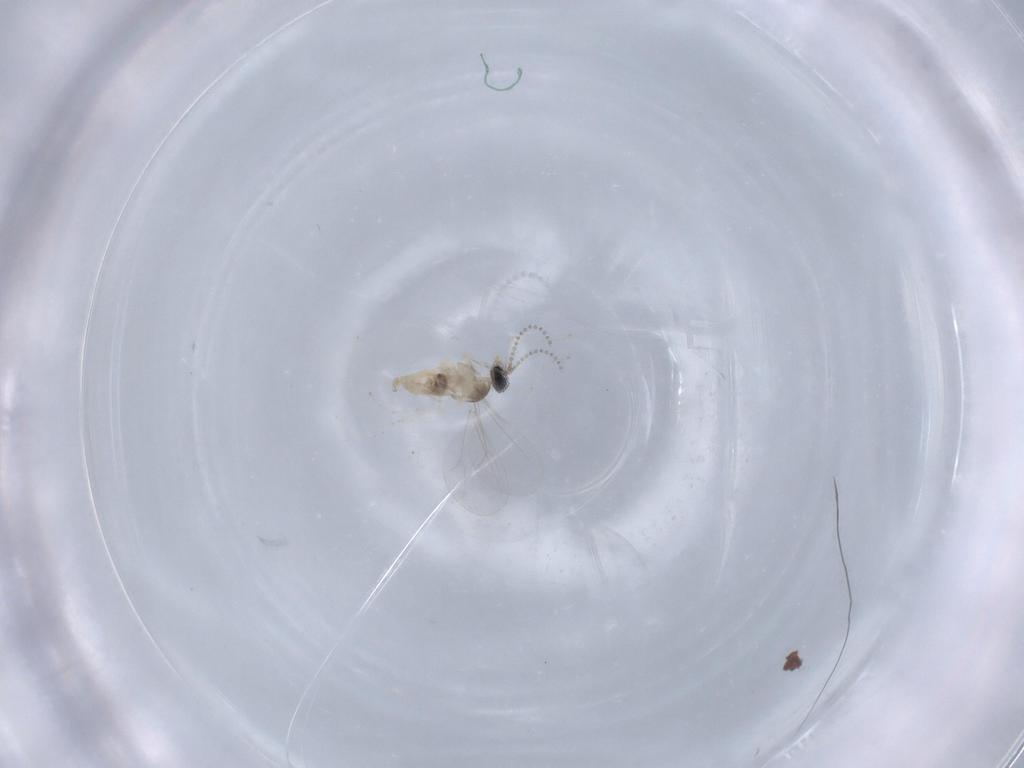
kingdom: Animalia
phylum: Arthropoda
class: Insecta
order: Diptera
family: Cecidomyiidae
